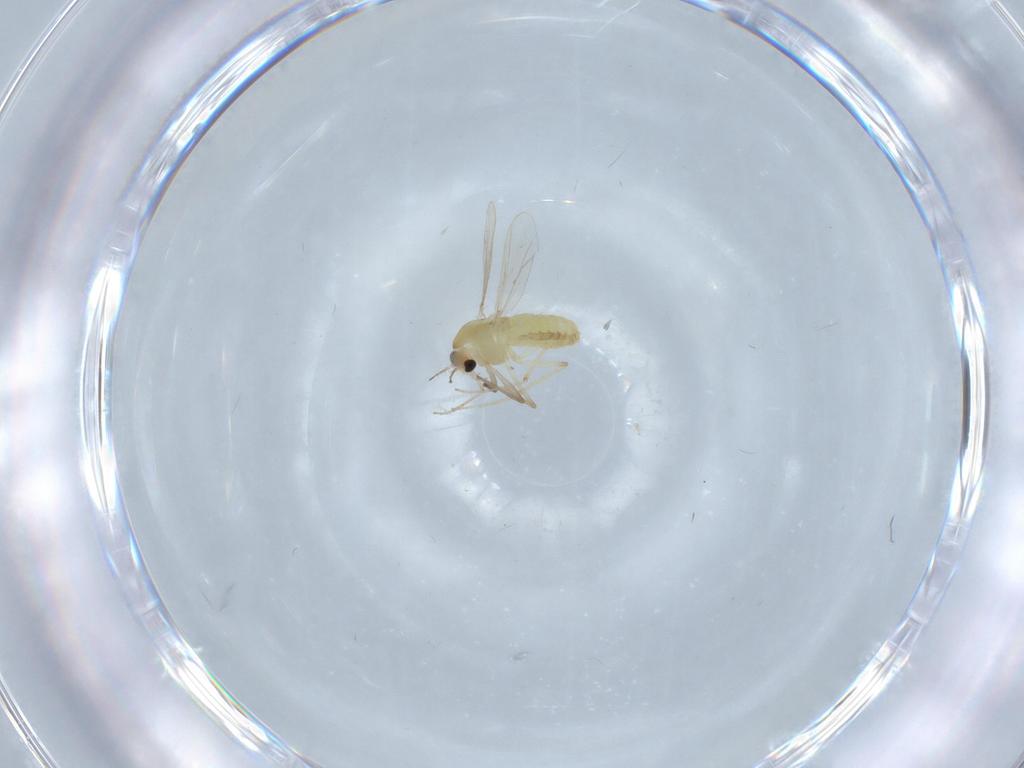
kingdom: Animalia
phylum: Arthropoda
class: Insecta
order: Diptera
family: Chironomidae
